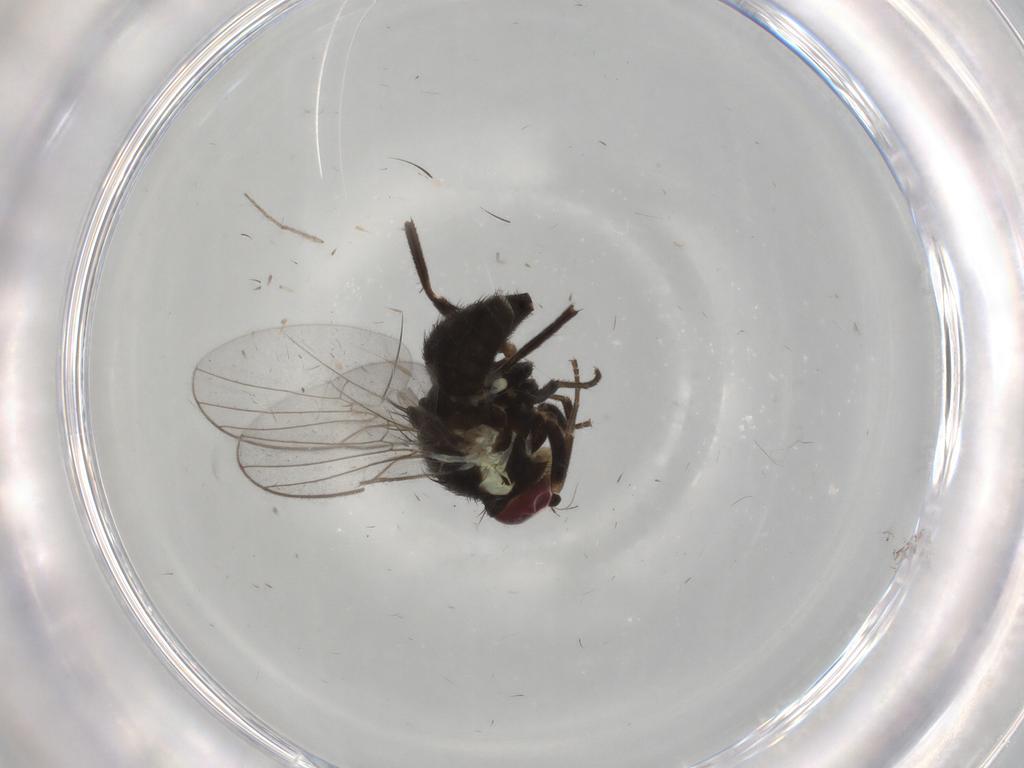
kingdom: Animalia
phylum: Arthropoda
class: Insecta
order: Diptera
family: Agromyzidae
